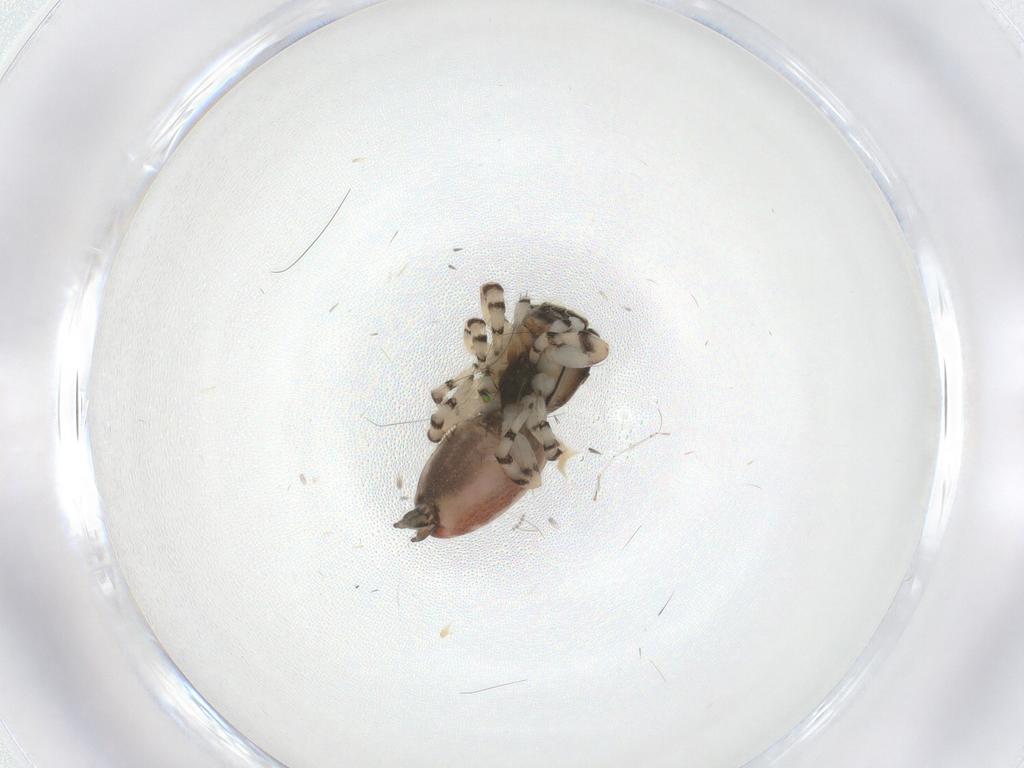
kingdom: Animalia
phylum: Arthropoda
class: Arachnida
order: Araneae
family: Salticidae
